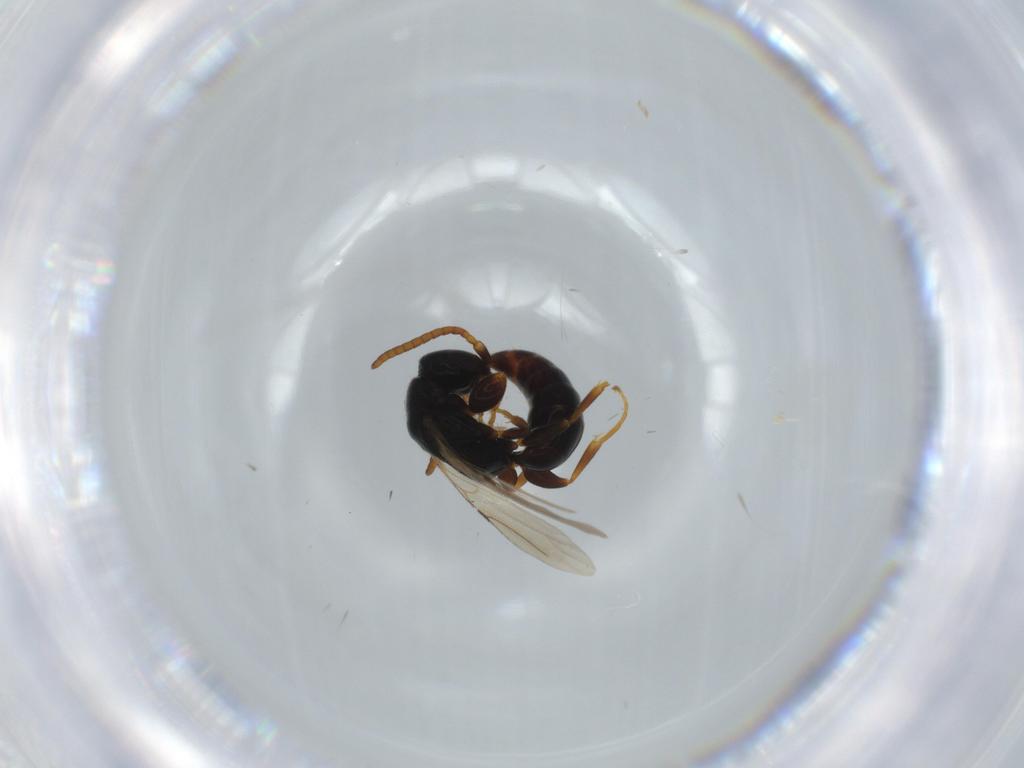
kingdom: Animalia
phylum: Arthropoda
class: Insecta
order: Hymenoptera
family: Bethylidae
